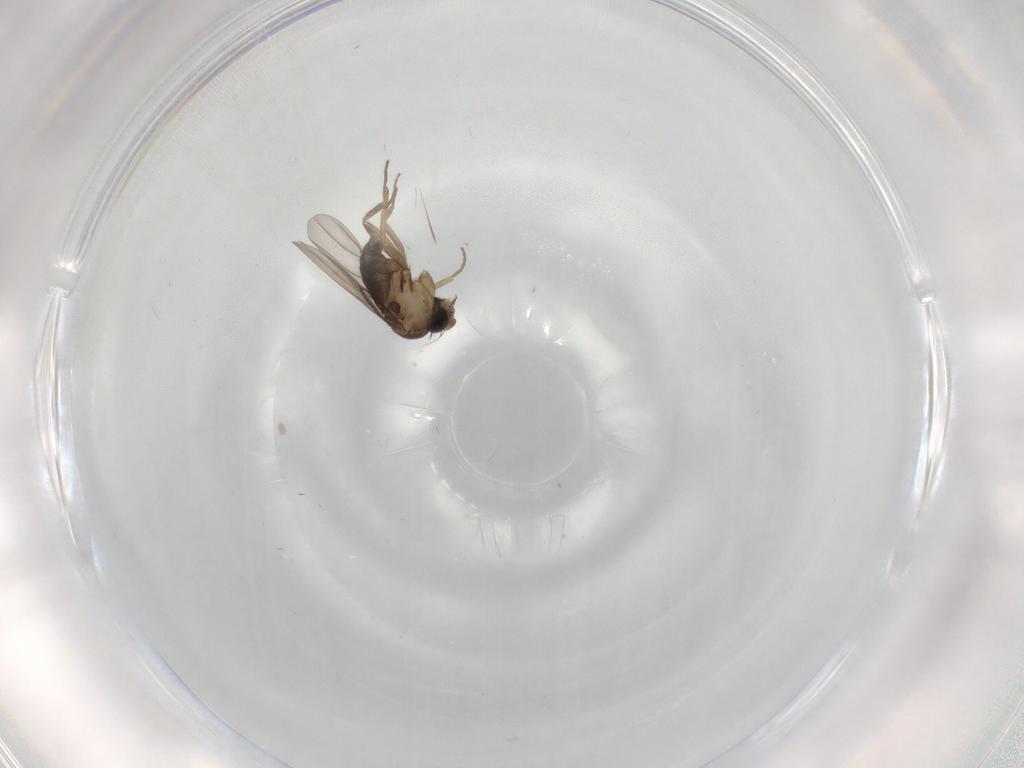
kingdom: Animalia
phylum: Arthropoda
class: Insecta
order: Diptera
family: Phoridae
